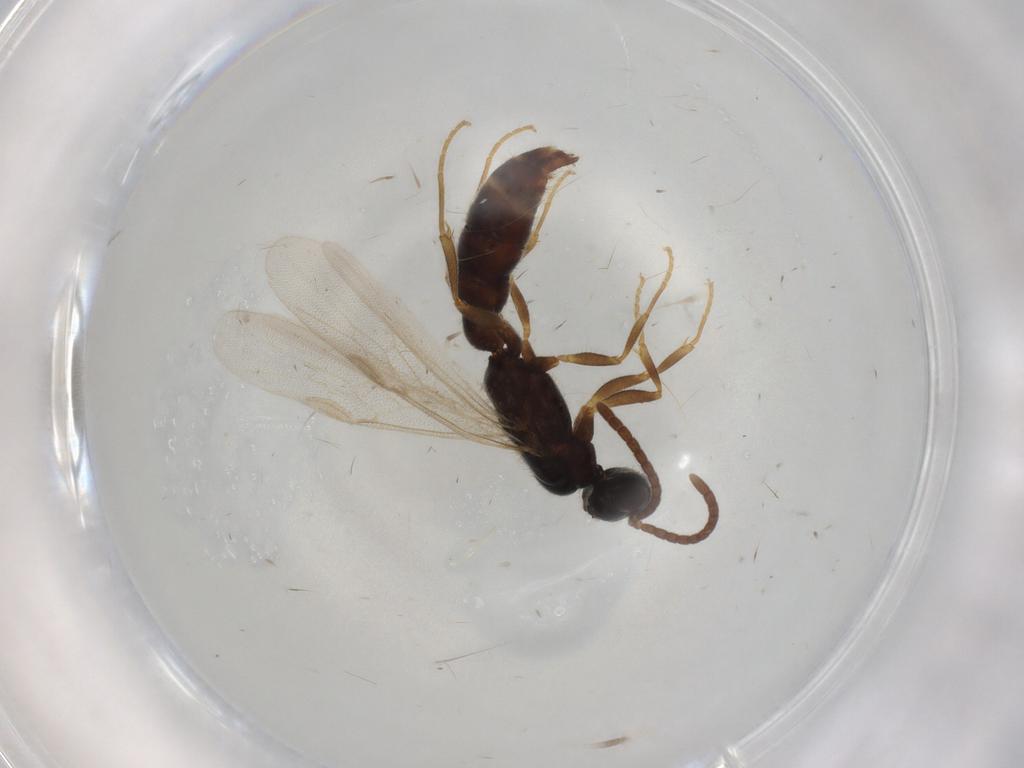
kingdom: Animalia
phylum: Arthropoda
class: Insecta
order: Hymenoptera
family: Formicidae
